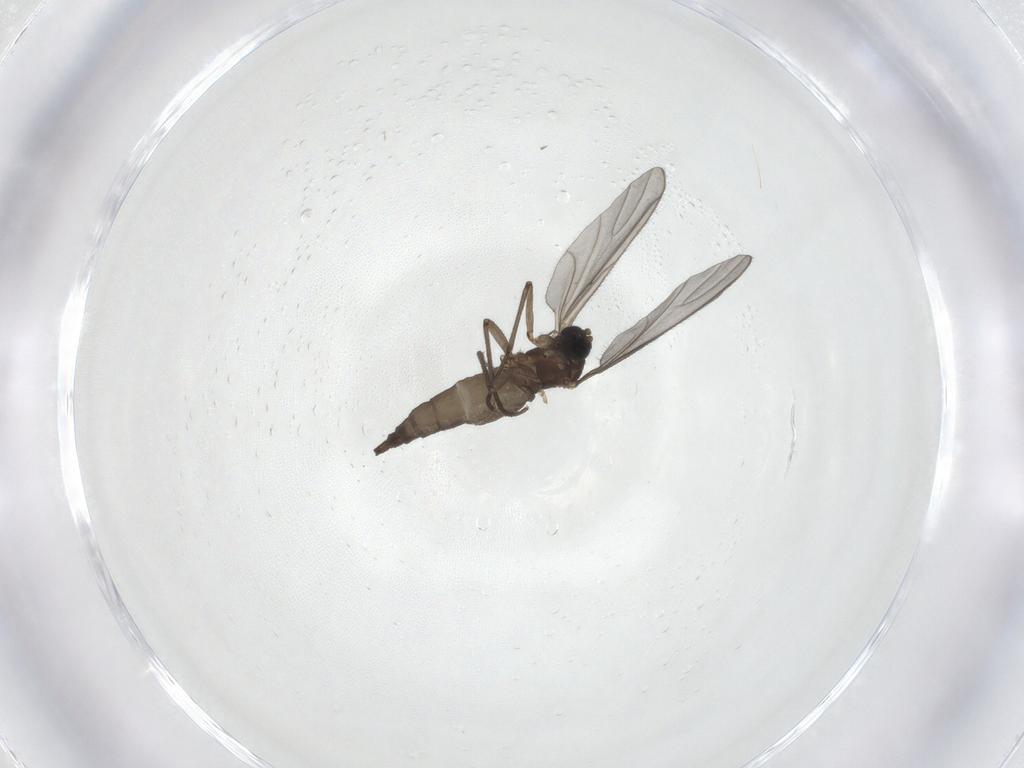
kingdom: Animalia
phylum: Arthropoda
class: Insecta
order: Diptera
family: Sciaridae
